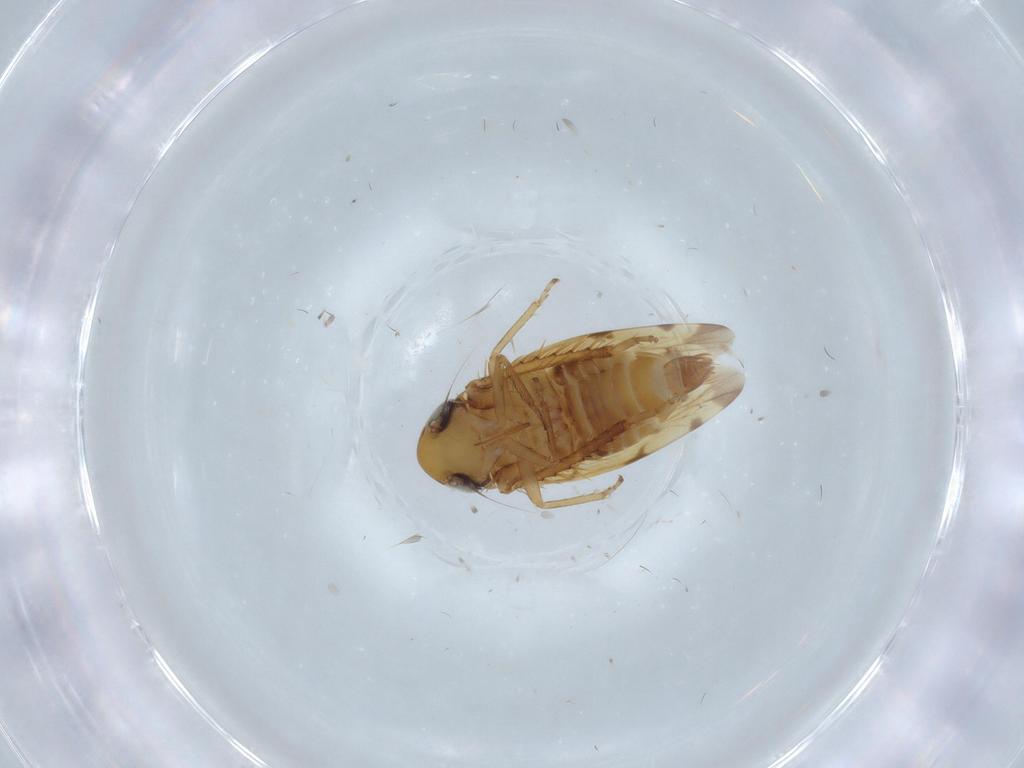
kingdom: Animalia
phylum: Arthropoda
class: Insecta
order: Hemiptera
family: Cicadellidae
